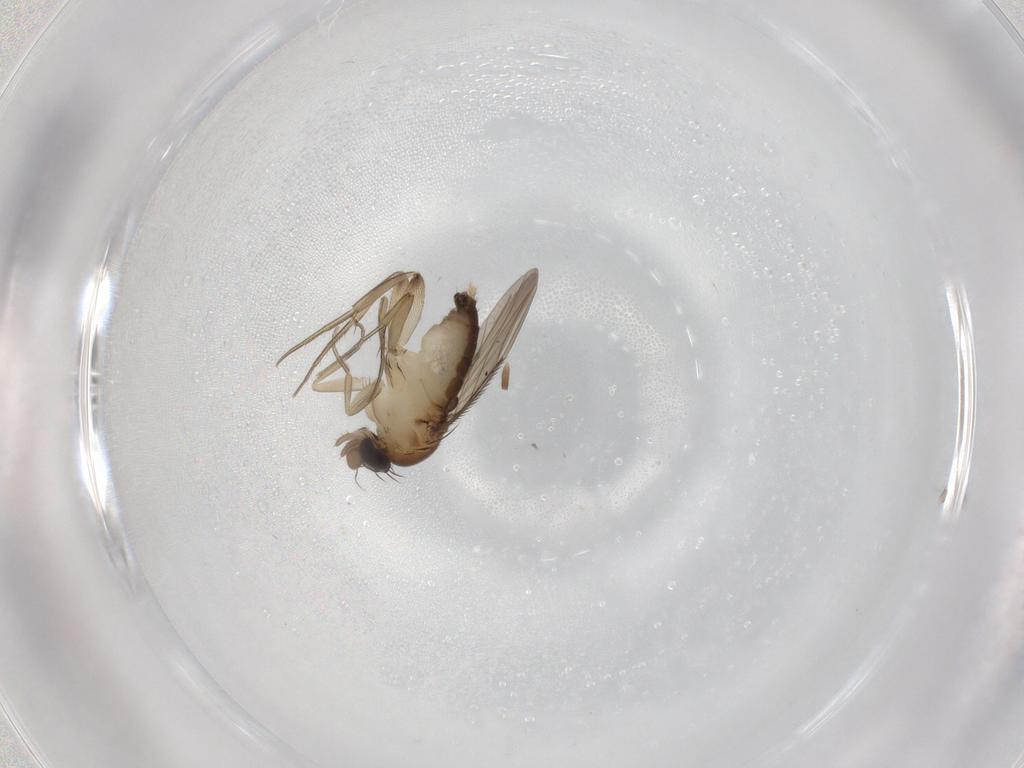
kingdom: Animalia
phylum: Arthropoda
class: Insecta
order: Diptera
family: Phoridae
